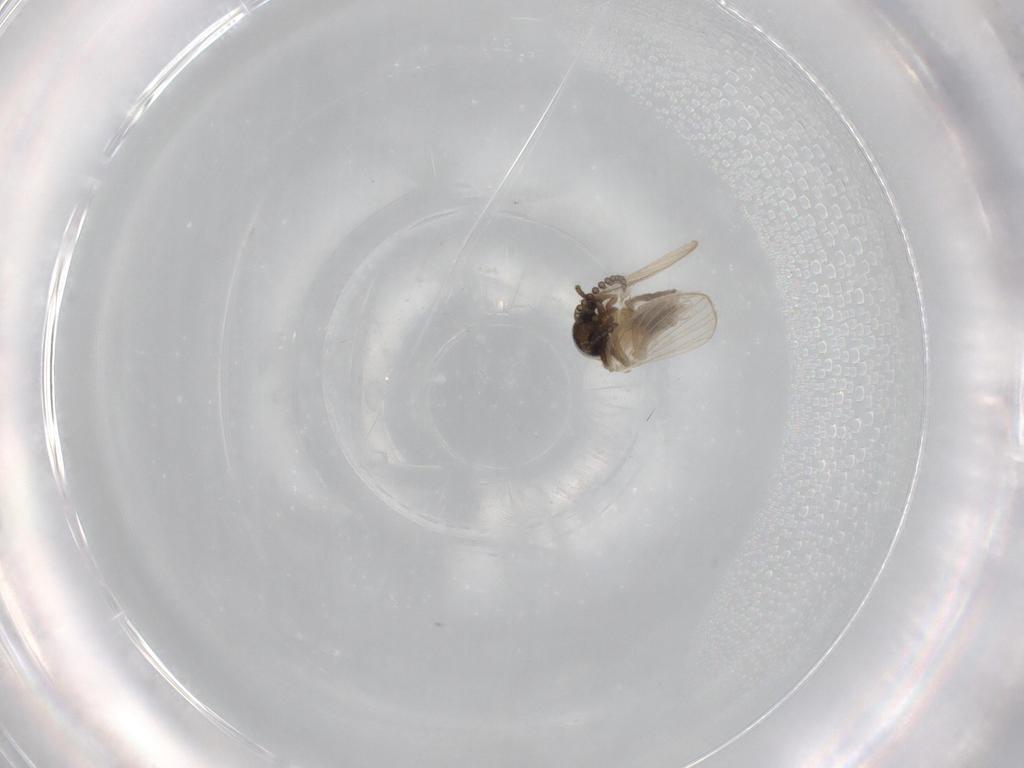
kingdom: Animalia
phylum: Arthropoda
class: Insecta
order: Diptera
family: Psychodidae
